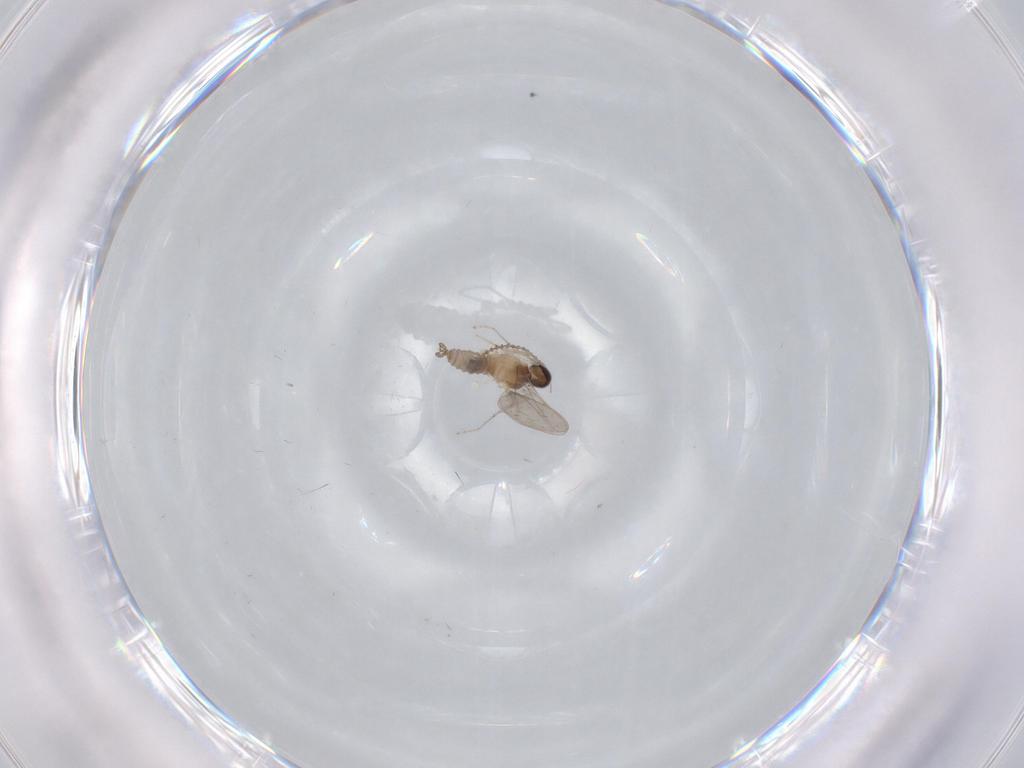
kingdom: Animalia
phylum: Arthropoda
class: Insecta
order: Diptera
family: Cecidomyiidae
